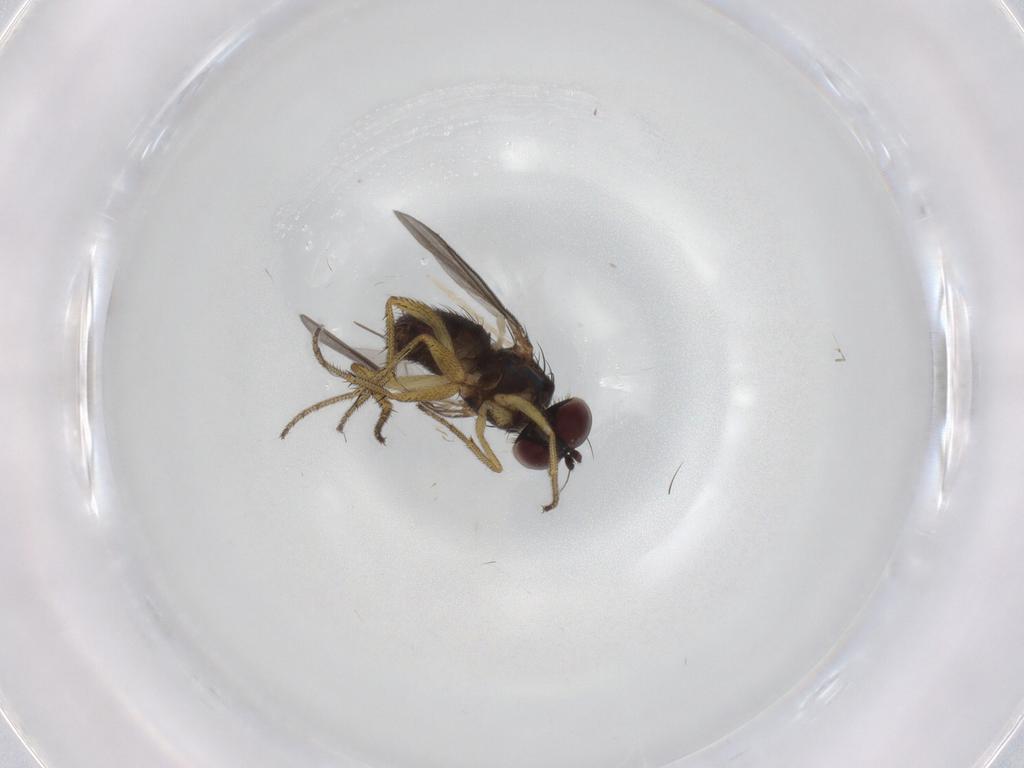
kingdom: Animalia
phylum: Arthropoda
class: Insecta
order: Diptera
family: Chironomidae
